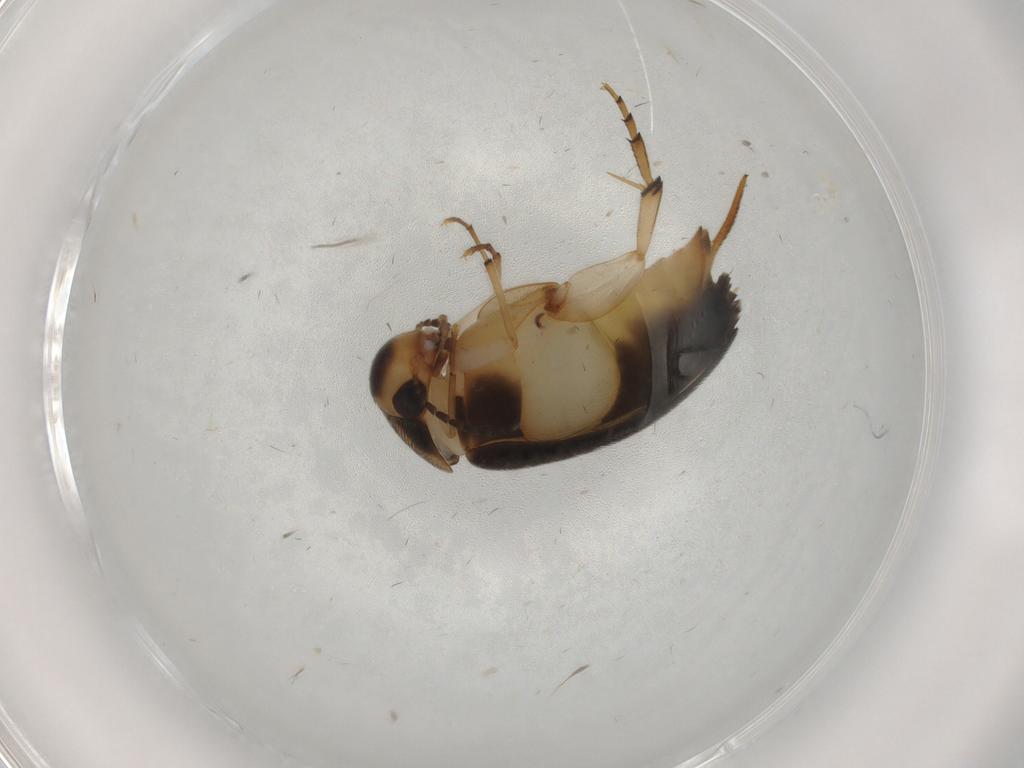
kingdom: Animalia
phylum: Arthropoda
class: Insecta
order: Coleoptera
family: Mordellidae
